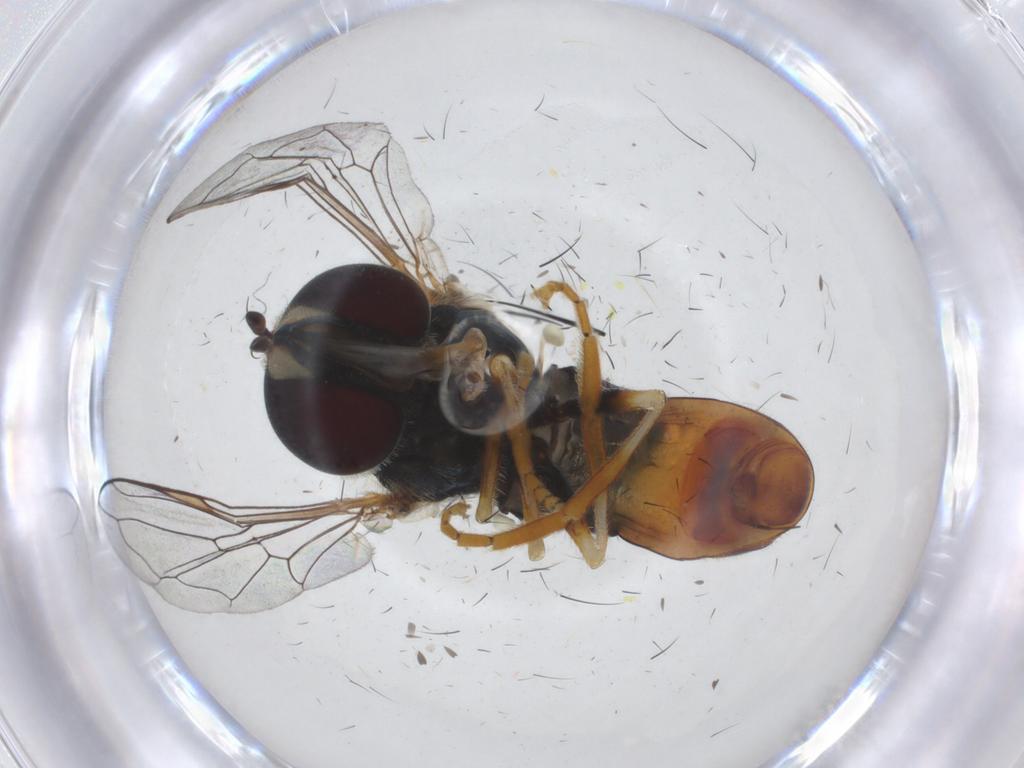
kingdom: Animalia
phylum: Arthropoda
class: Insecta
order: Diptera
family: Syrphidae
